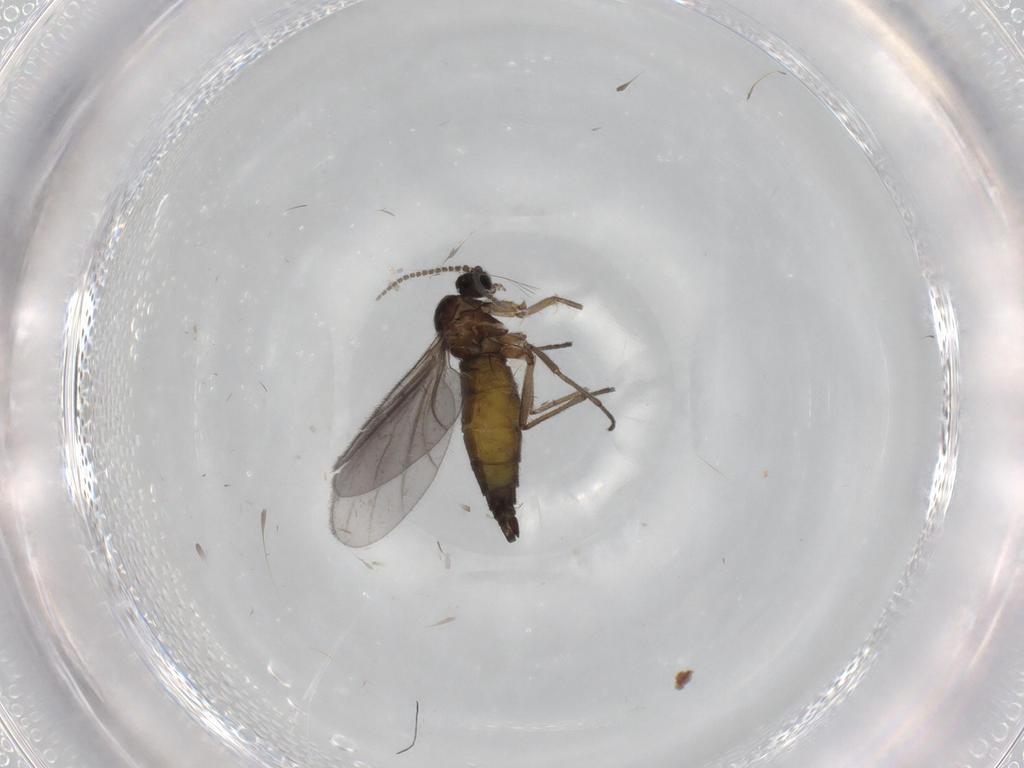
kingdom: Animalia
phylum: Arthropoda
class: Insecta
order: Diptera
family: Sciaridae
